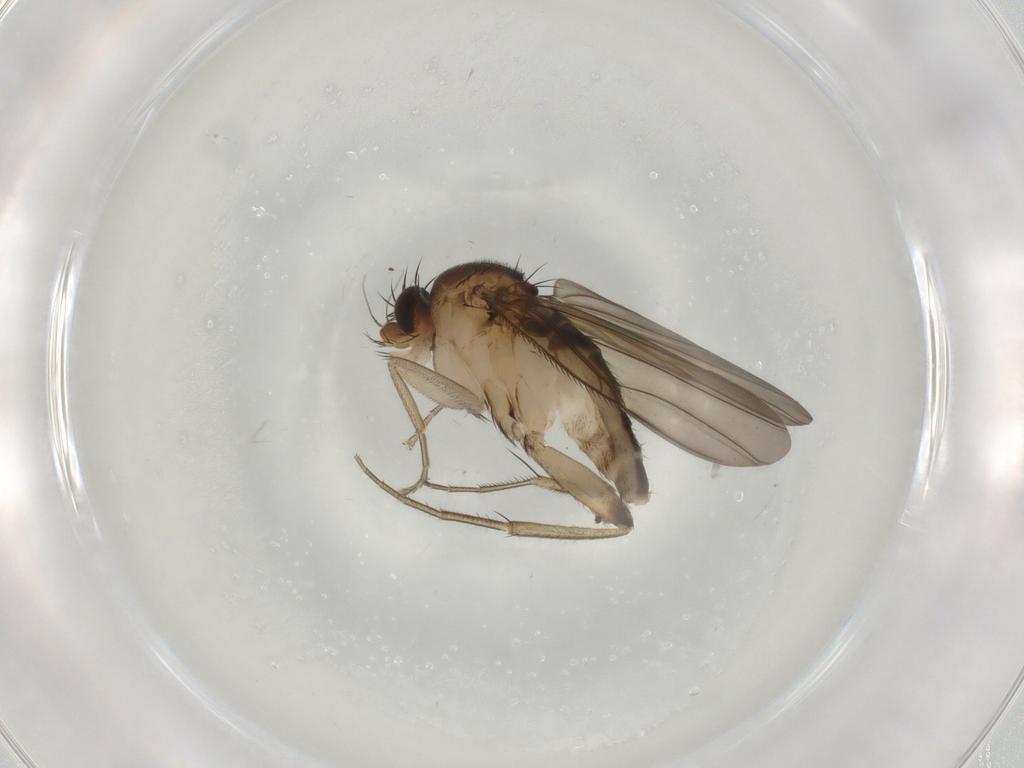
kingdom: Animalia
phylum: Arthropoda
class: Insecta
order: Diptera
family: Phoridae
